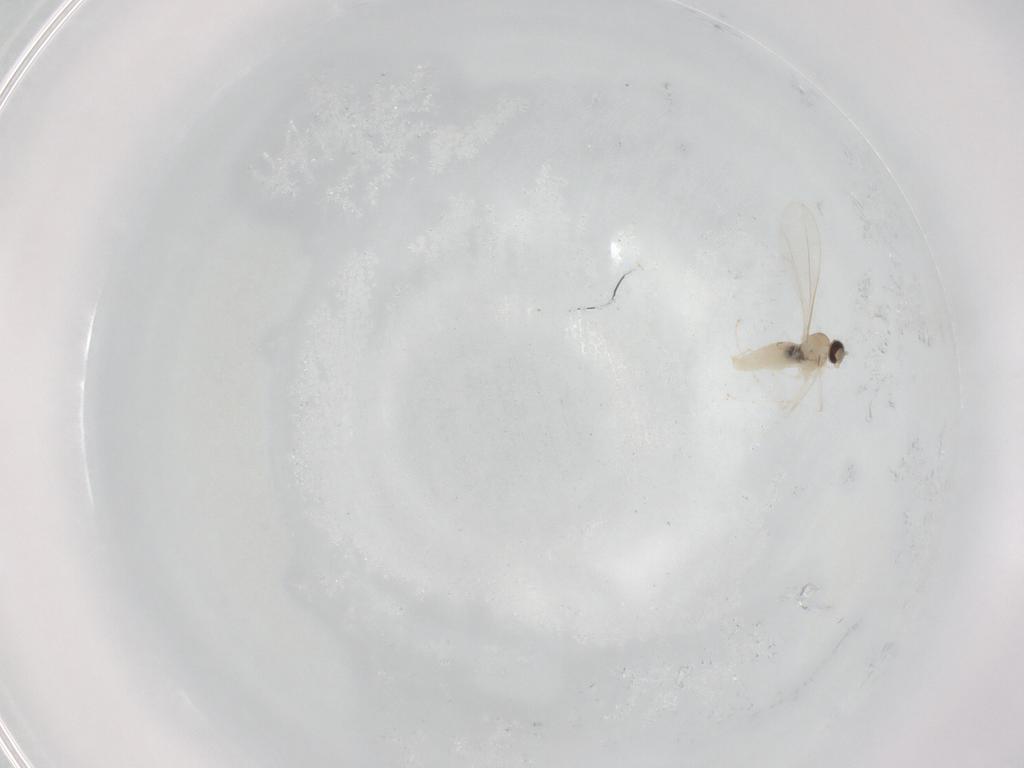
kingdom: Animalia
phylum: Arthropoda
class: Insecta
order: Diptera
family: Cecidomyiidae
